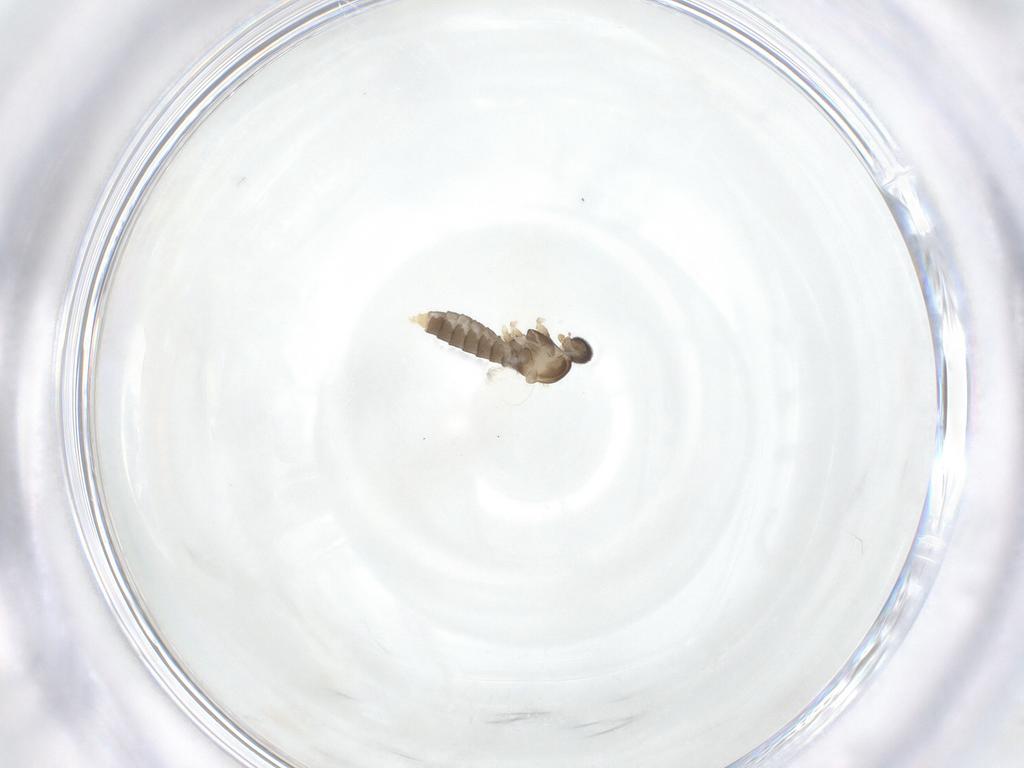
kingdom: Animalia
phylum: Arthropoda
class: Insecta
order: Diptera
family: Cecidomyiidae
